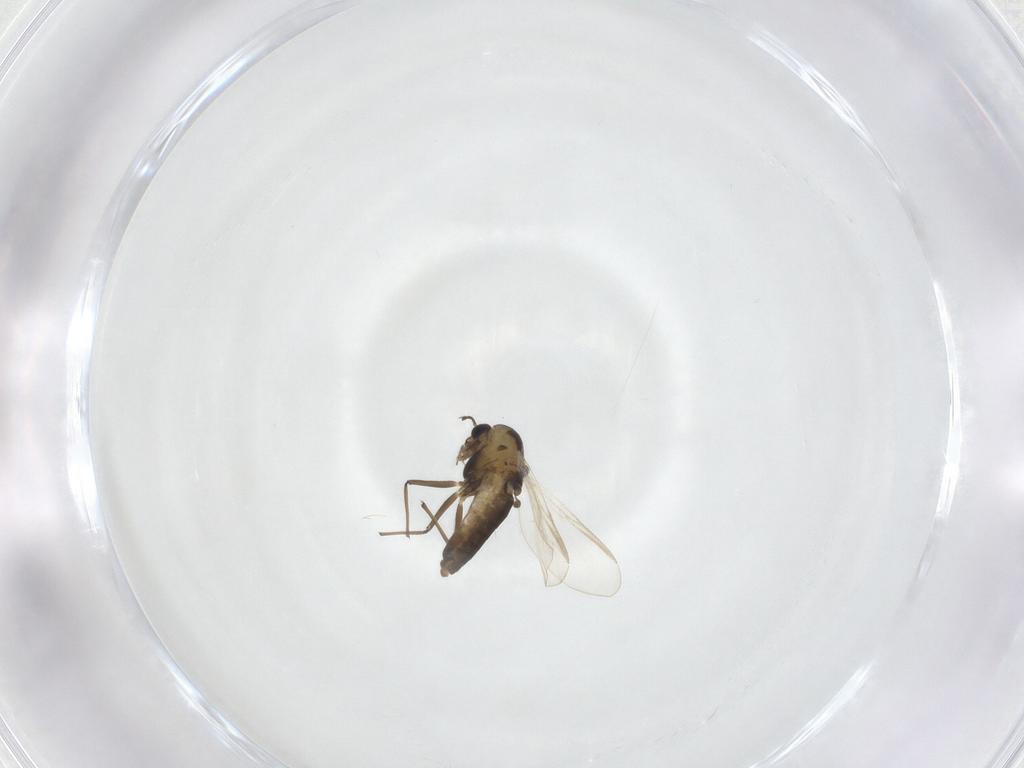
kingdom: Animalia
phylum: Arthropoda
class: Insecta
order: Diptera
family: Chironomidae
